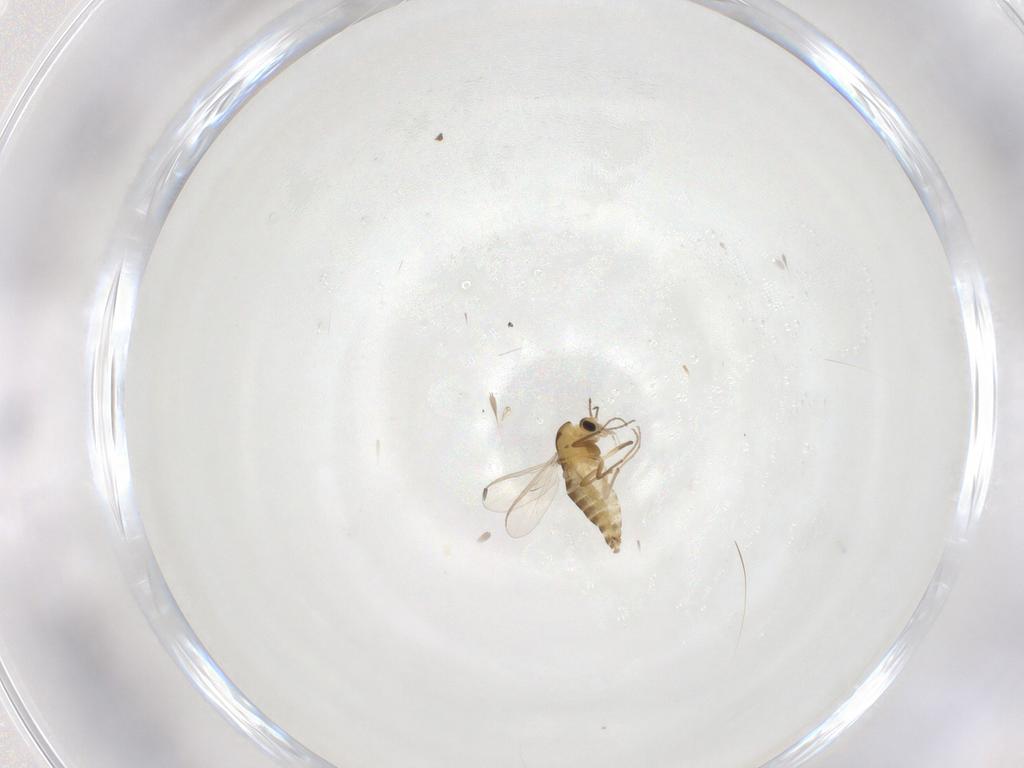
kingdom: Animalia
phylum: Arthropoda
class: Insecta
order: Diptera
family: Chironomidae
